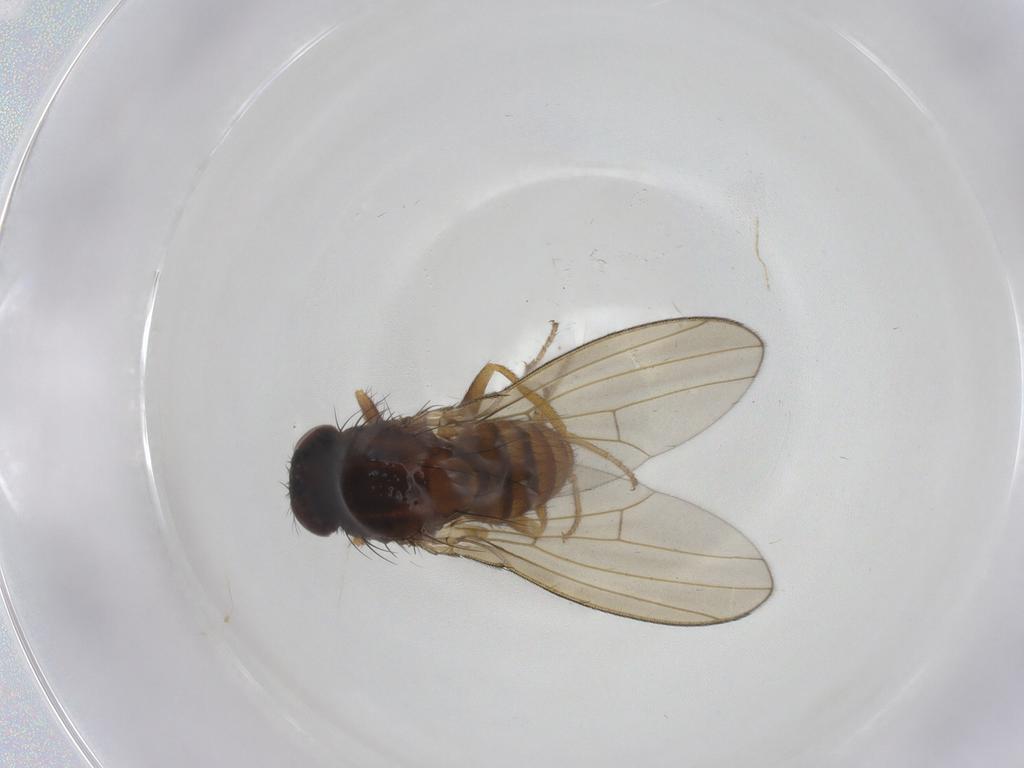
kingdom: Animalia
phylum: Arthropoda
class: Insecta
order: Diptera
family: Drosophilidae
